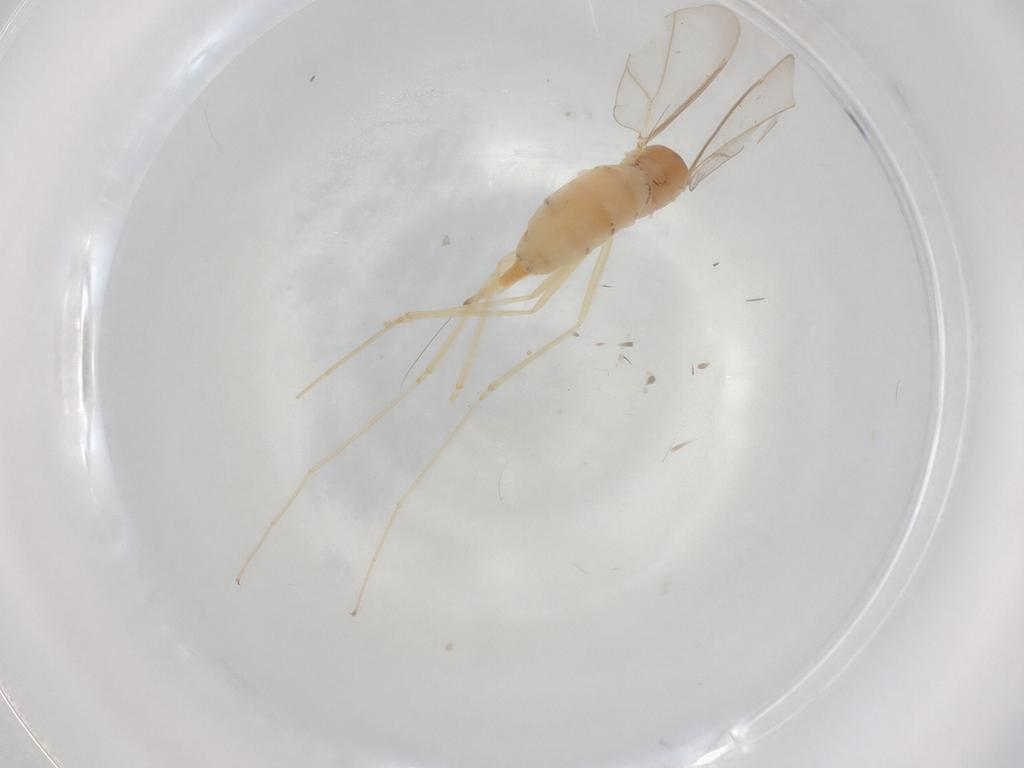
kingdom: Animalia
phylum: Arthropoda
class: Insecta
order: Diptera
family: Cecidomyiidae
